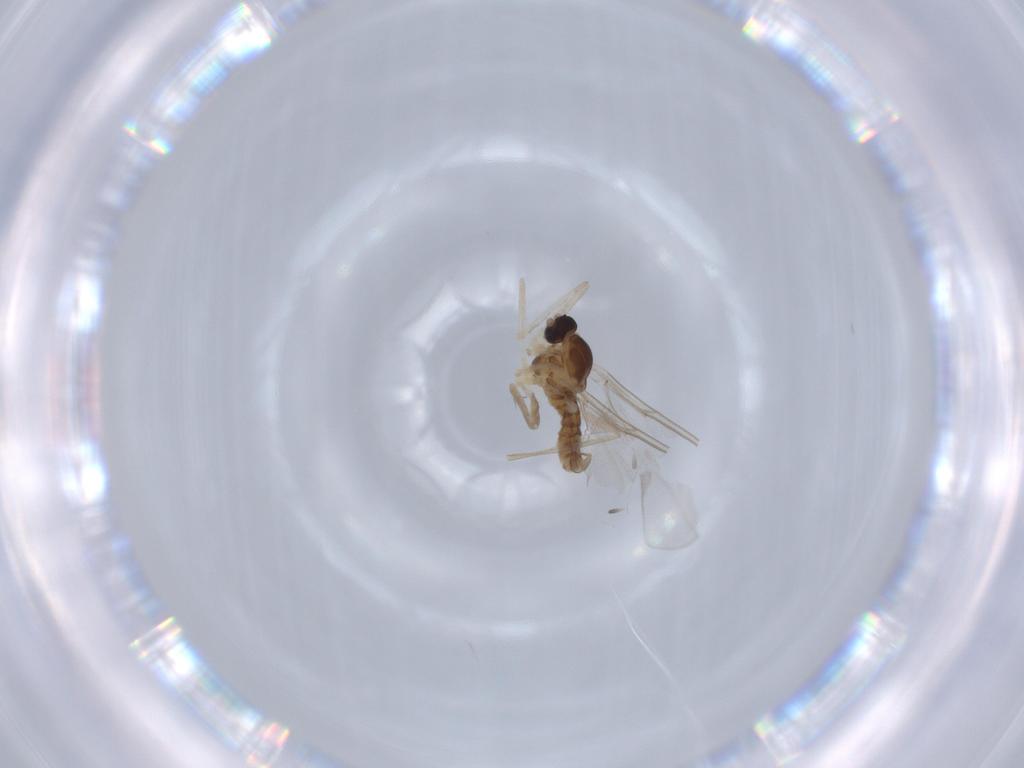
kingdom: Animalia
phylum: Arthropoda
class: Insecta
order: Diptera
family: Cecidomyiidae
